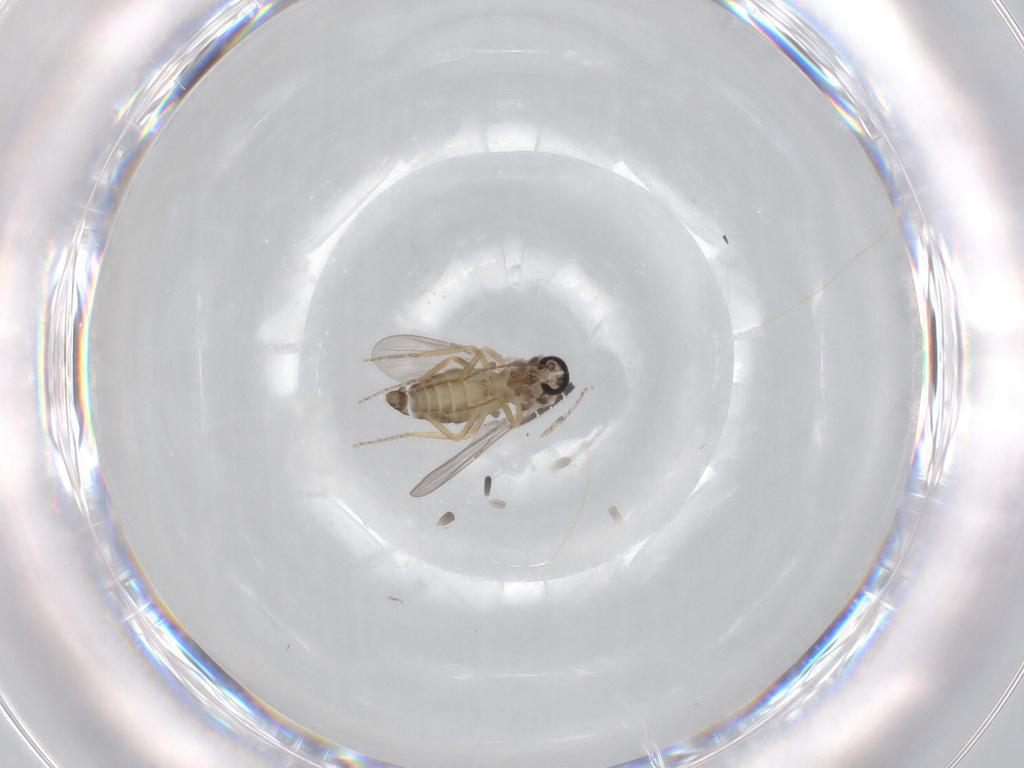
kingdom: Animalia
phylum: Arthropoda
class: Insecta
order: Diptera
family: Sciaridae
